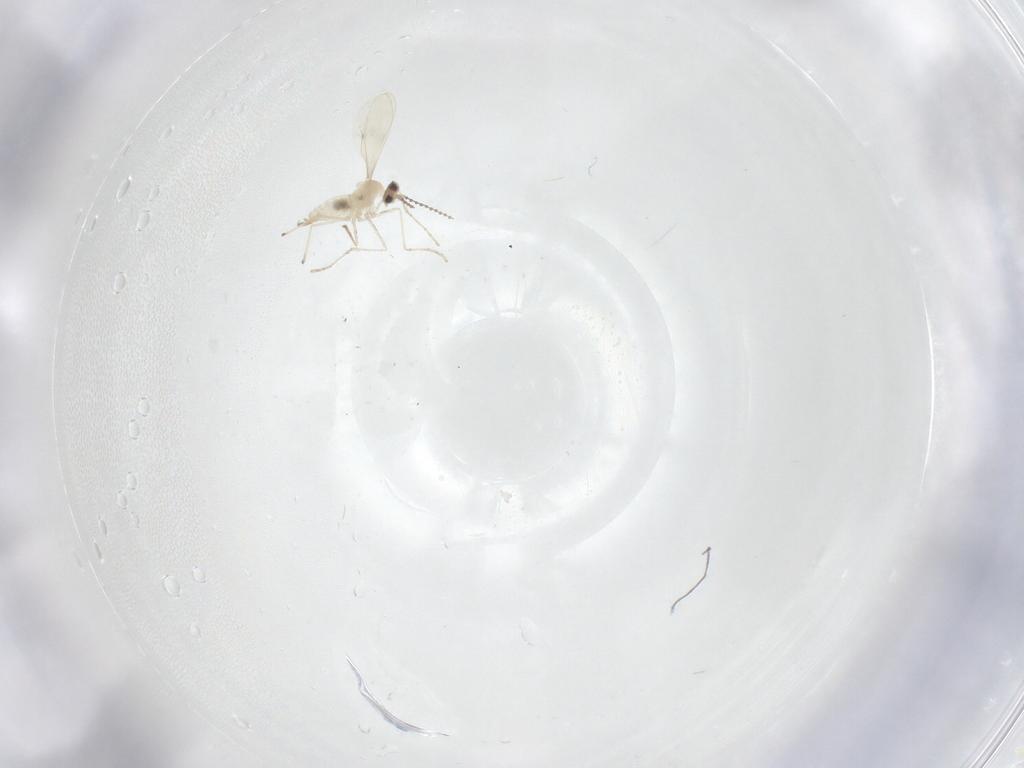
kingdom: Animalia
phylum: Arthropoda
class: Insecta
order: Diptera
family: Cecidomyiidae
